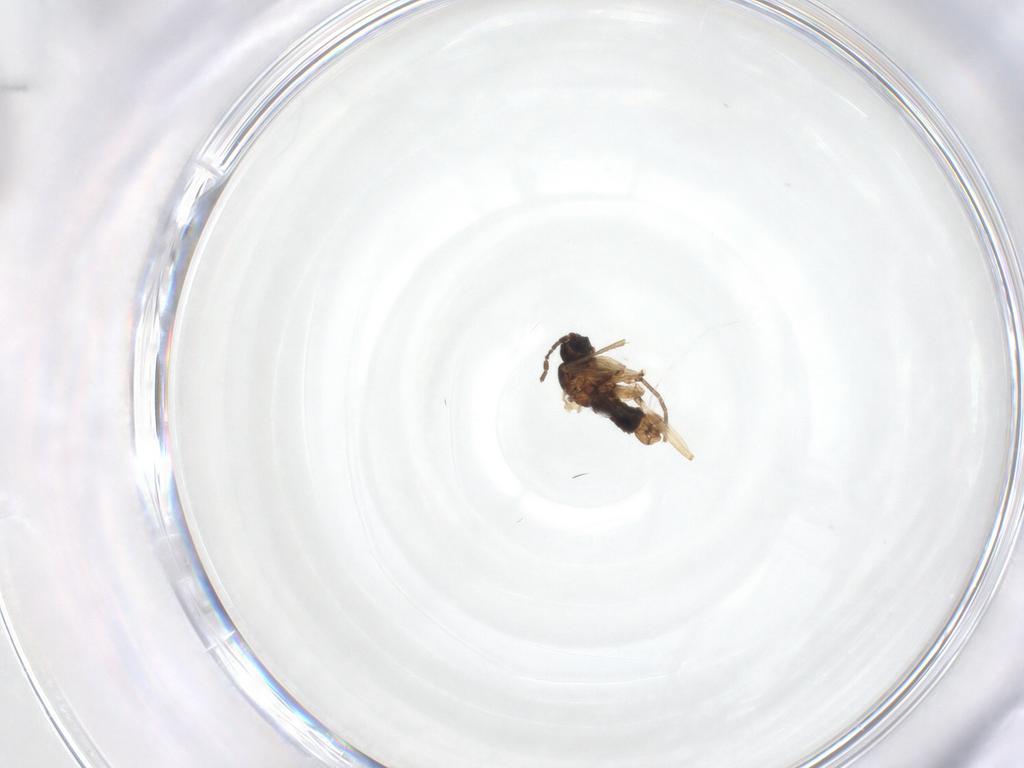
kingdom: Animalia
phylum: Arthropoda
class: Insecta
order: Diptera
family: Sciaridae
